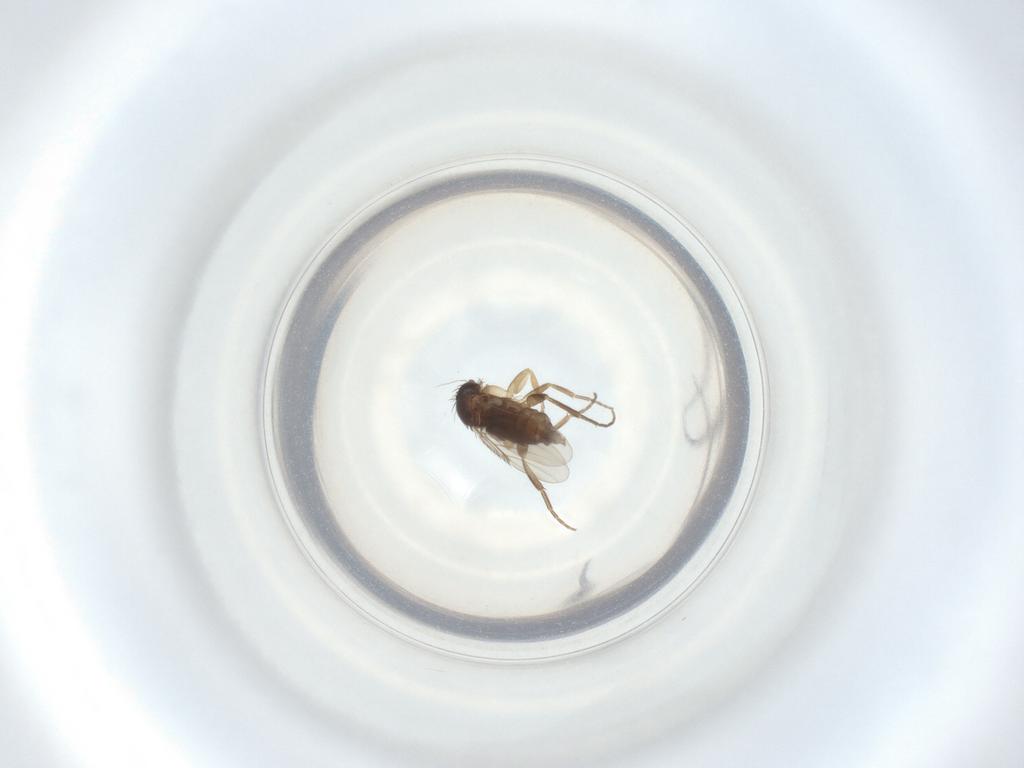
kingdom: Animalia
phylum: Arthropoda
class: Insecta
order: Diptera
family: Phoridae
